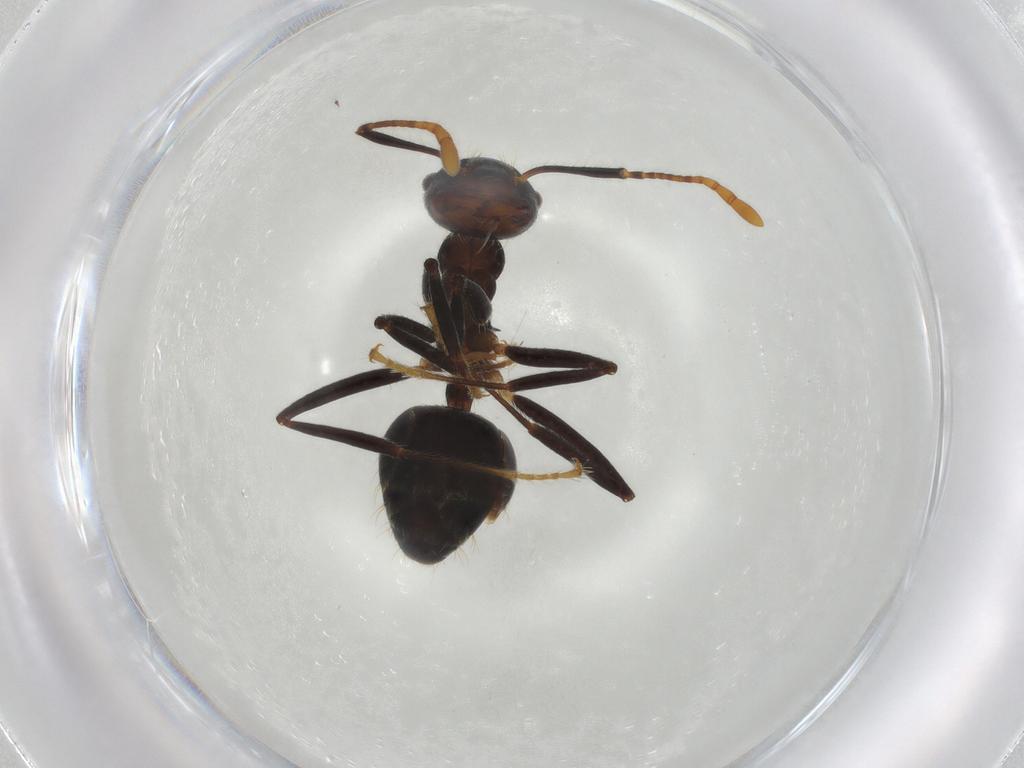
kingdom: Animalia
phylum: Arthropoda
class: Insecta
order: Hymenoptera
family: Formicidae
